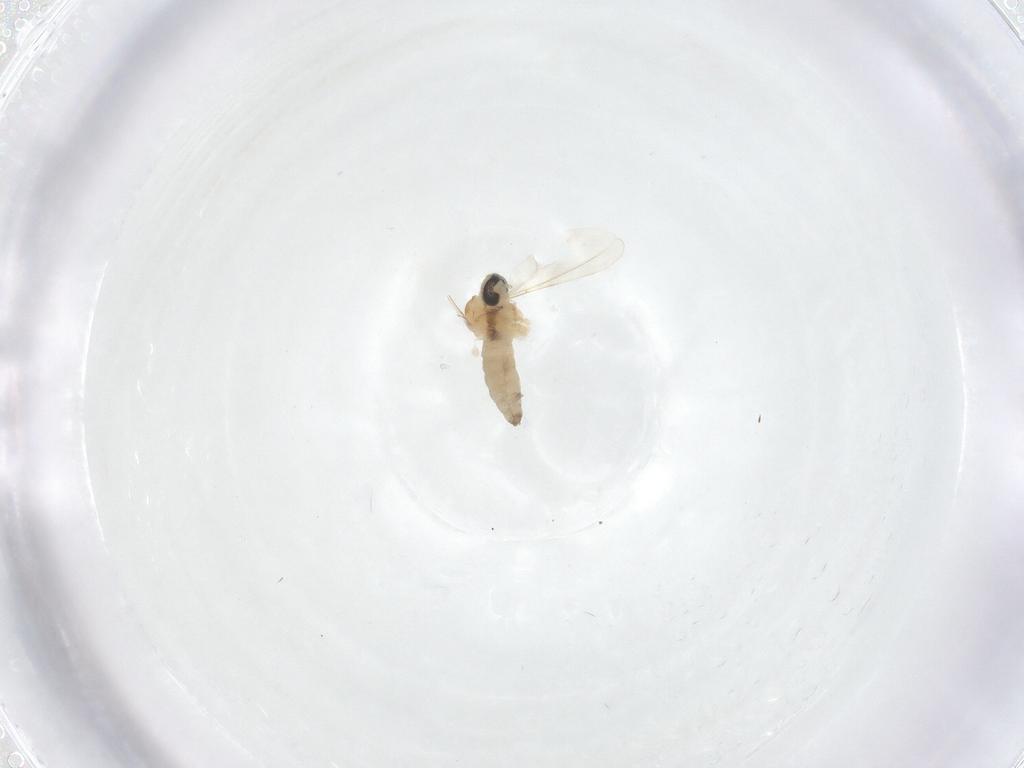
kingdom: Animalia
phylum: Arthropoda
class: Insecta
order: Diptera
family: Cecidomyiidae
